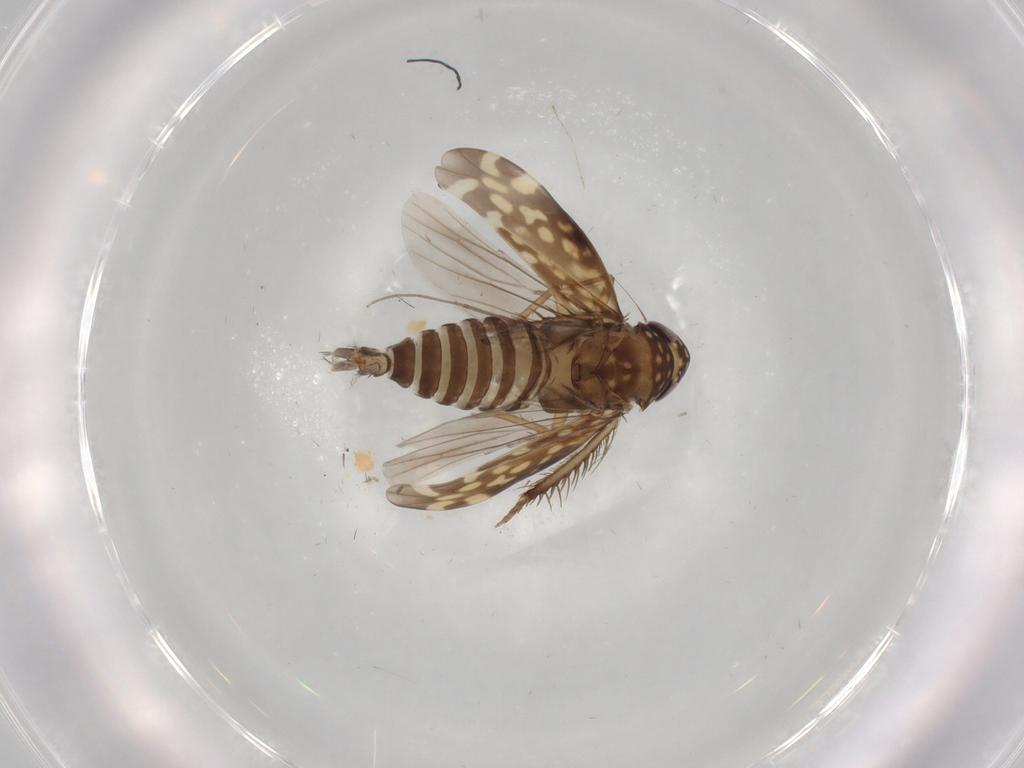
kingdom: Animalia
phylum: Arthropoda
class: Insecta
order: Hemiptera
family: Cicadellidae
